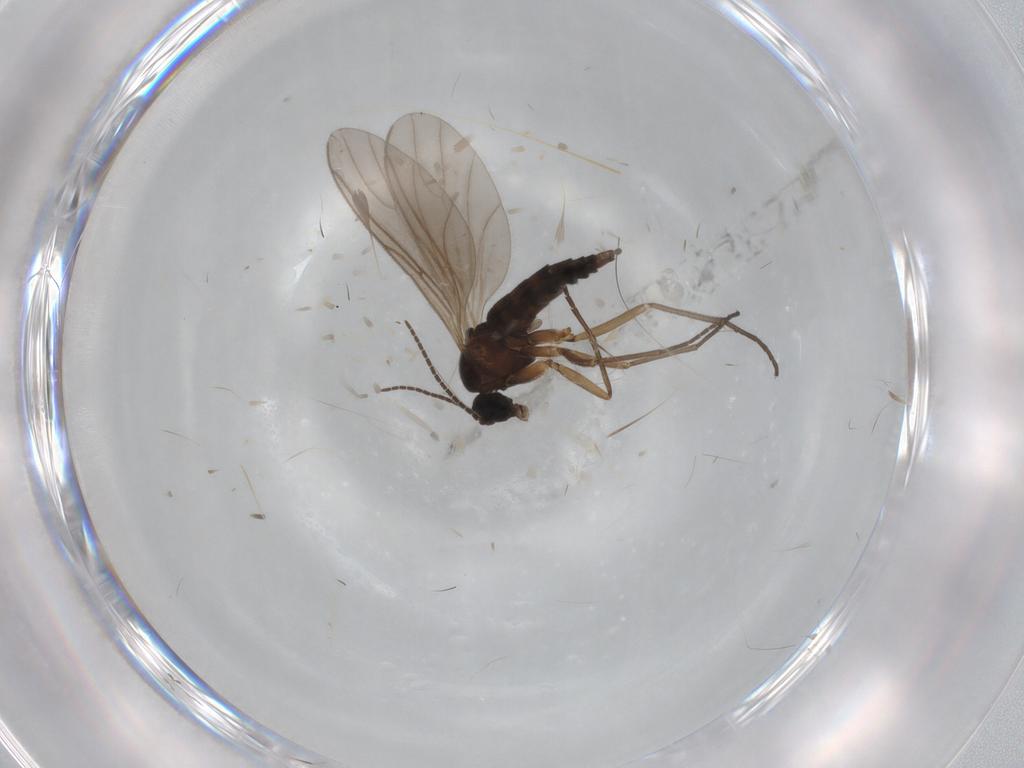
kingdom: Animalia
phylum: Arthropoda
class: Insecta
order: Diptera
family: Sciaridae
